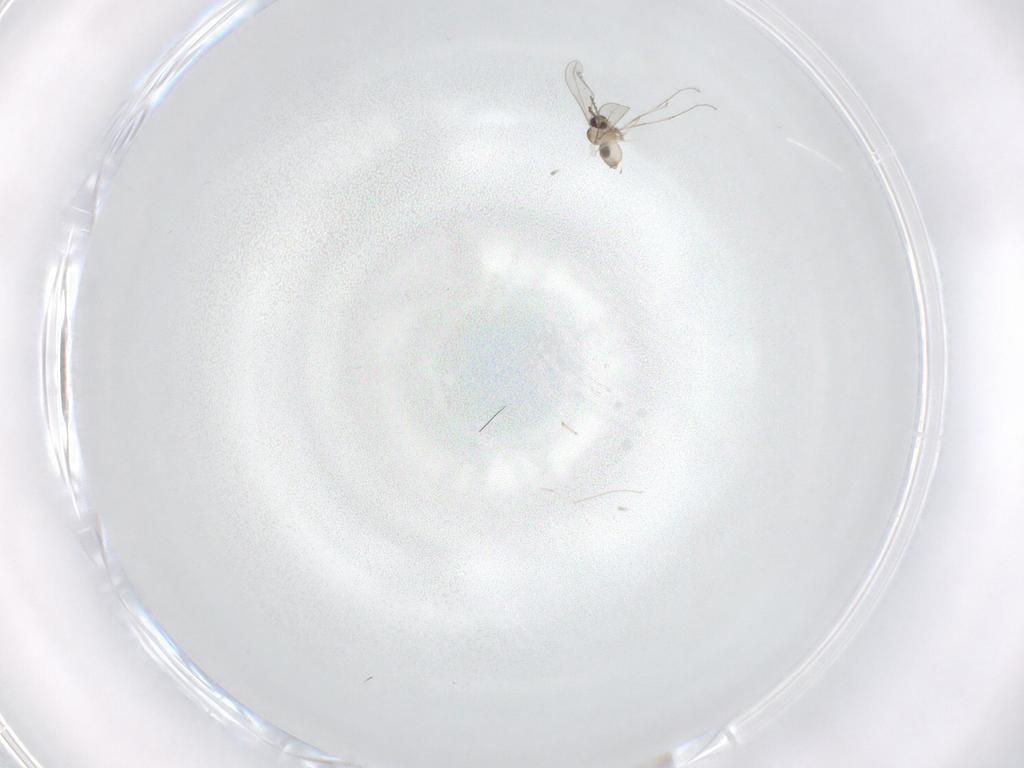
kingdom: Animalia
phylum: Arthropoda
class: Insecta
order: Diptera
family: Cecidomyiidae
